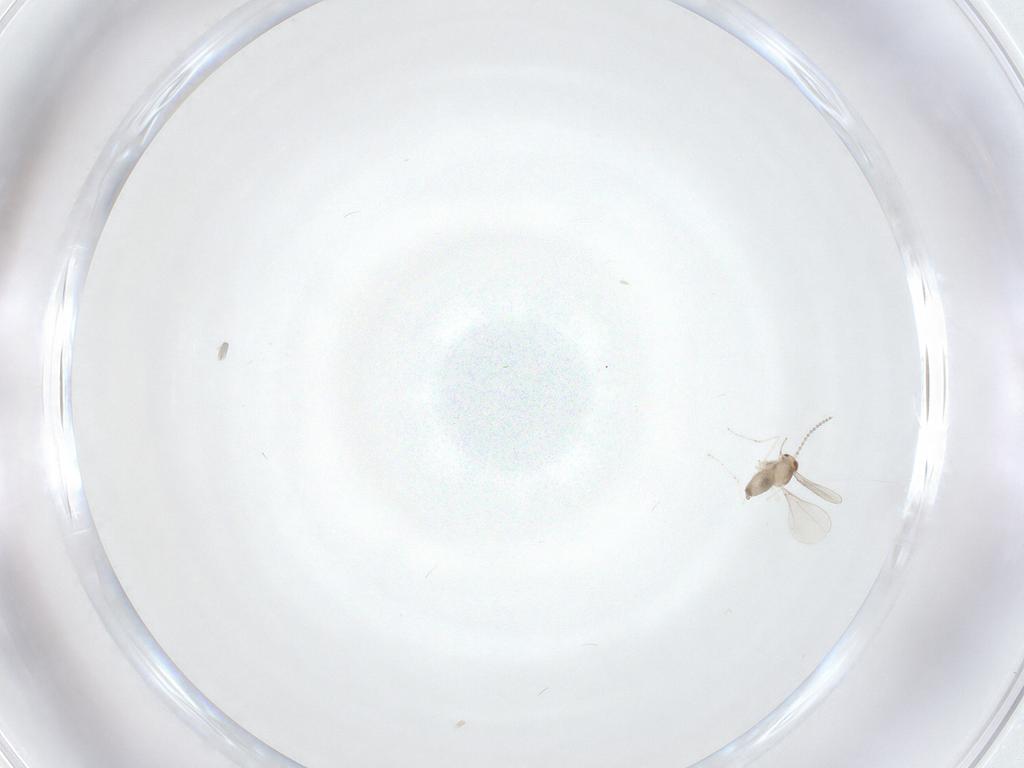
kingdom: Animalia
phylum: Arthropoda
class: Insecta
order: Diptera
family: Cecidomyiidae
